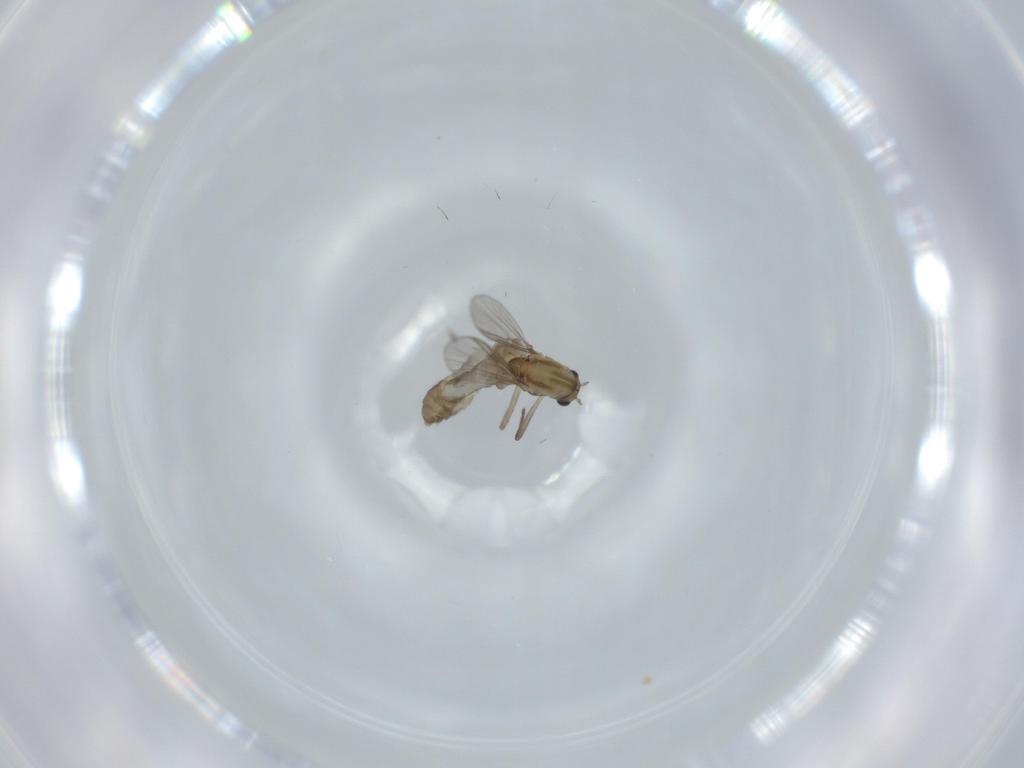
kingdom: Animalia
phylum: Arthropoda
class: Insecta
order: Diptera
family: Chironomidae
